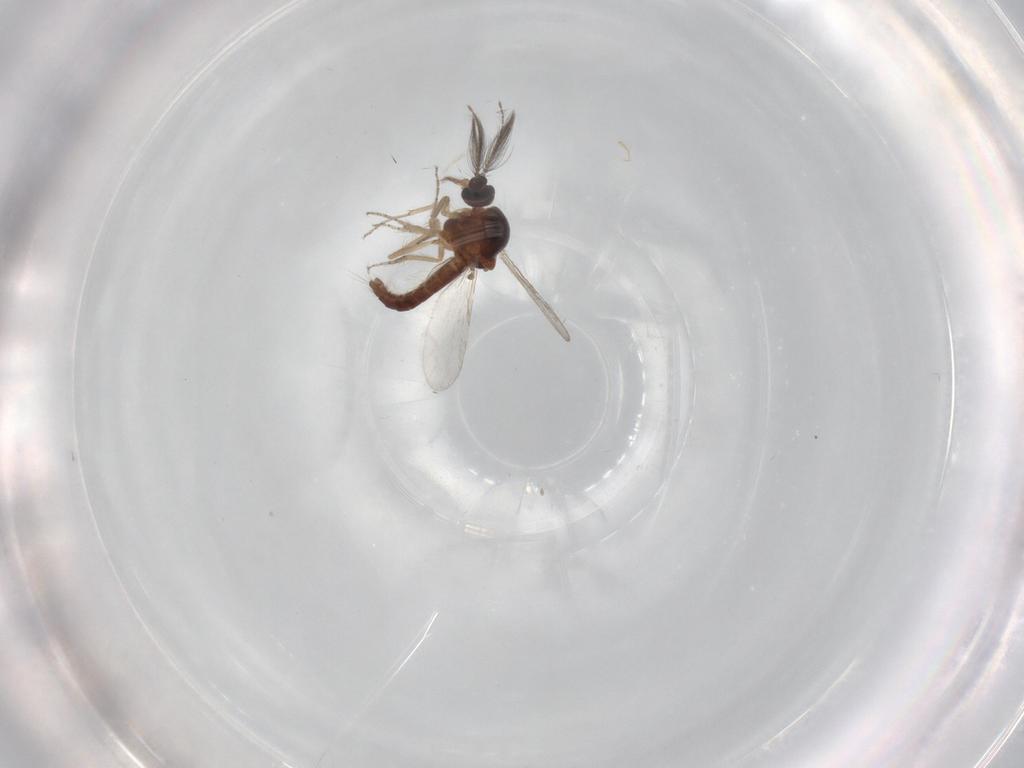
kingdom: Animalia
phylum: Arthropoda
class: Insecta
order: Diptera
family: Ceratopogonidae
